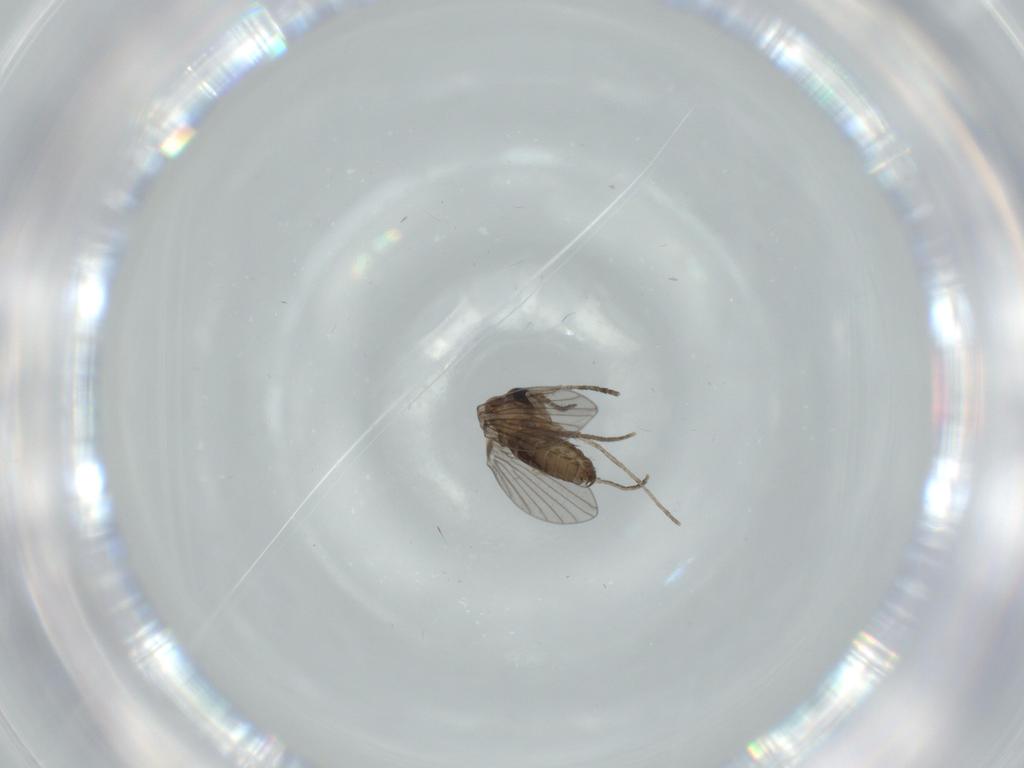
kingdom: Animalia
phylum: Arthropoda
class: Insecta
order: Diptera
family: Psychodidae
